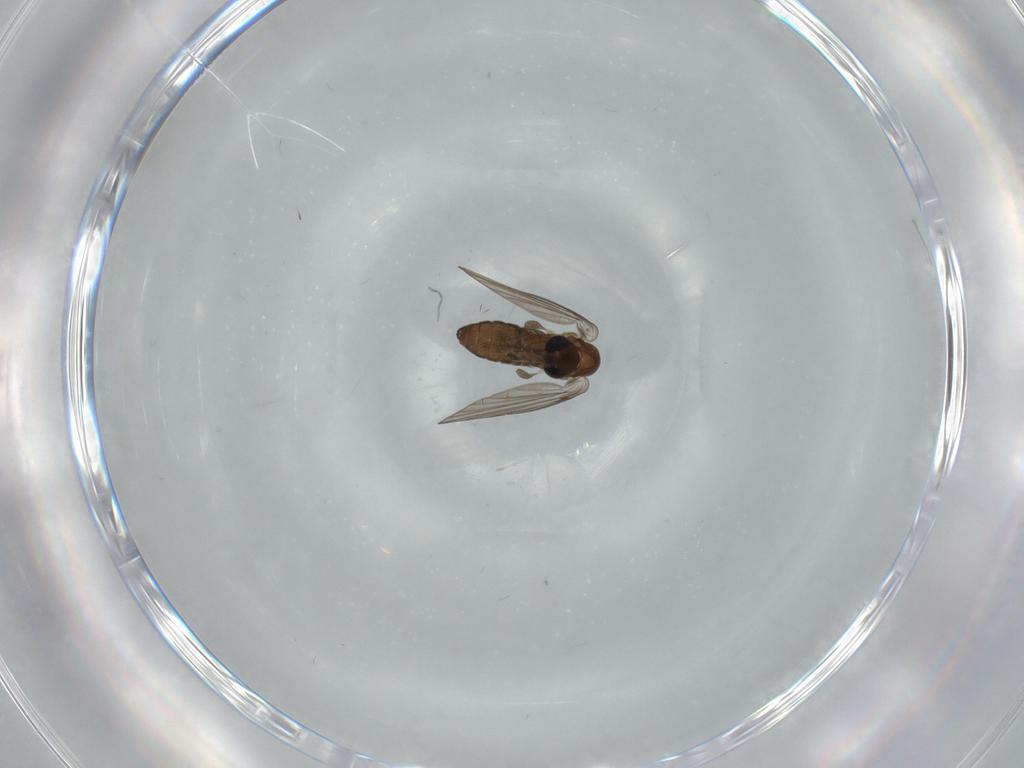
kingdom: Animalia
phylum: Arthropoda
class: Insecta
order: Diptera
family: Psychodidae
